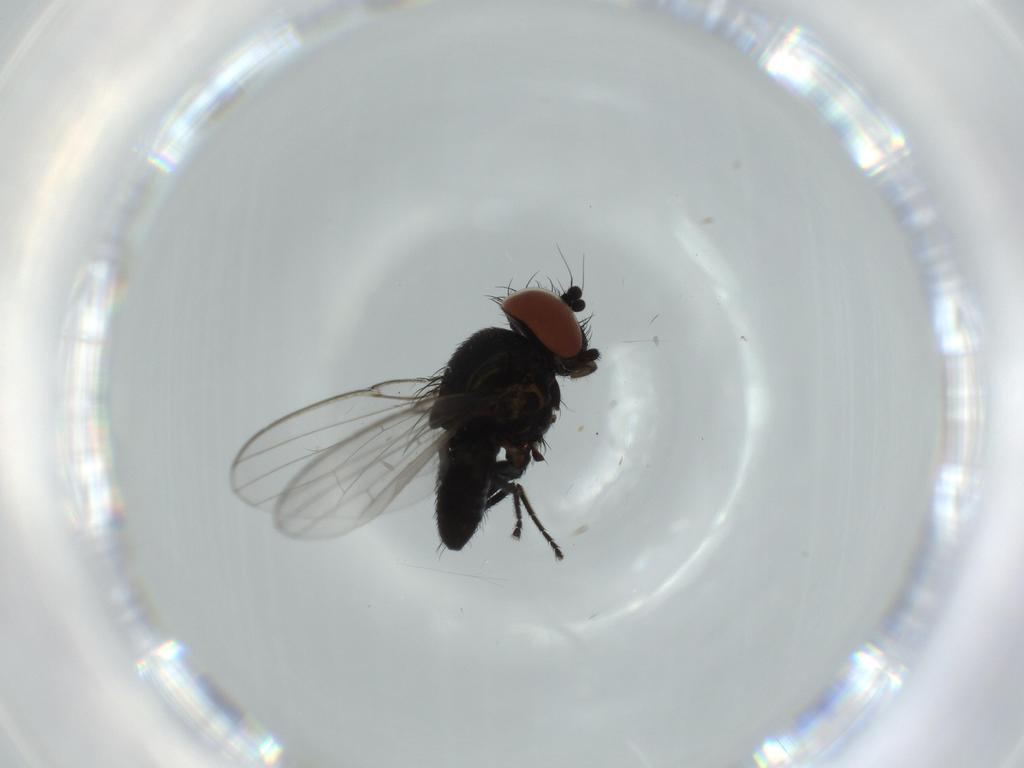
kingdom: Animalia
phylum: Arthropoda
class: Insecta
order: Diptera
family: Milichiidae
